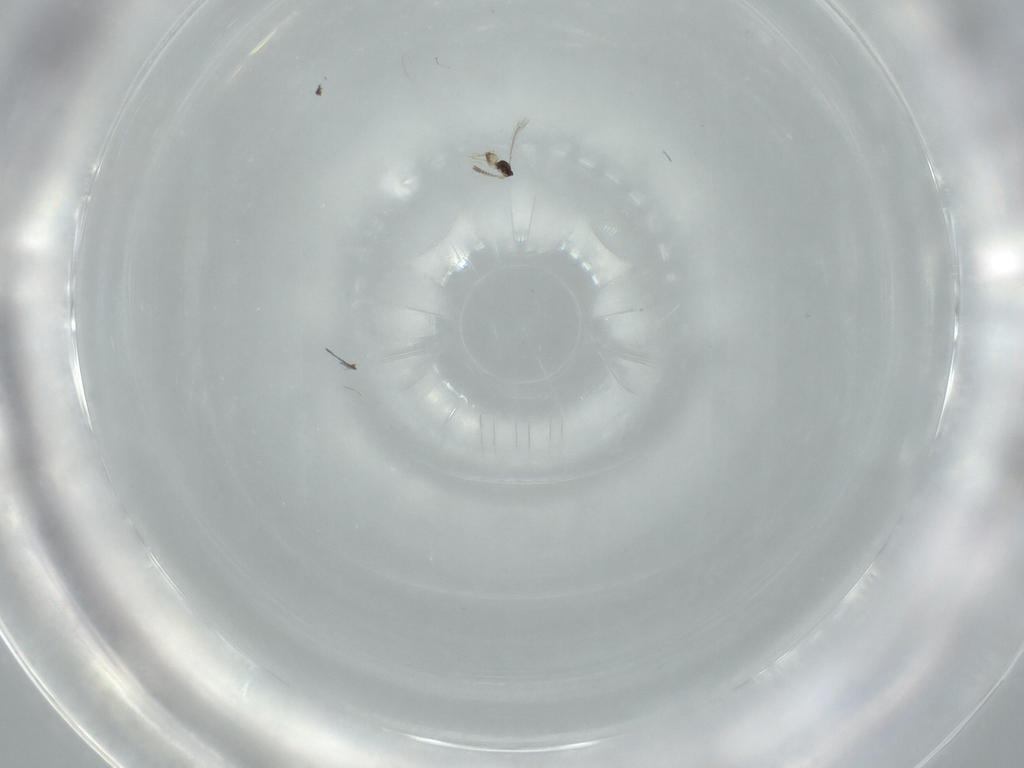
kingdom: Animalia
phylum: Arthropoda
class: Insecta
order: Hymenoptera
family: Mymaridae
